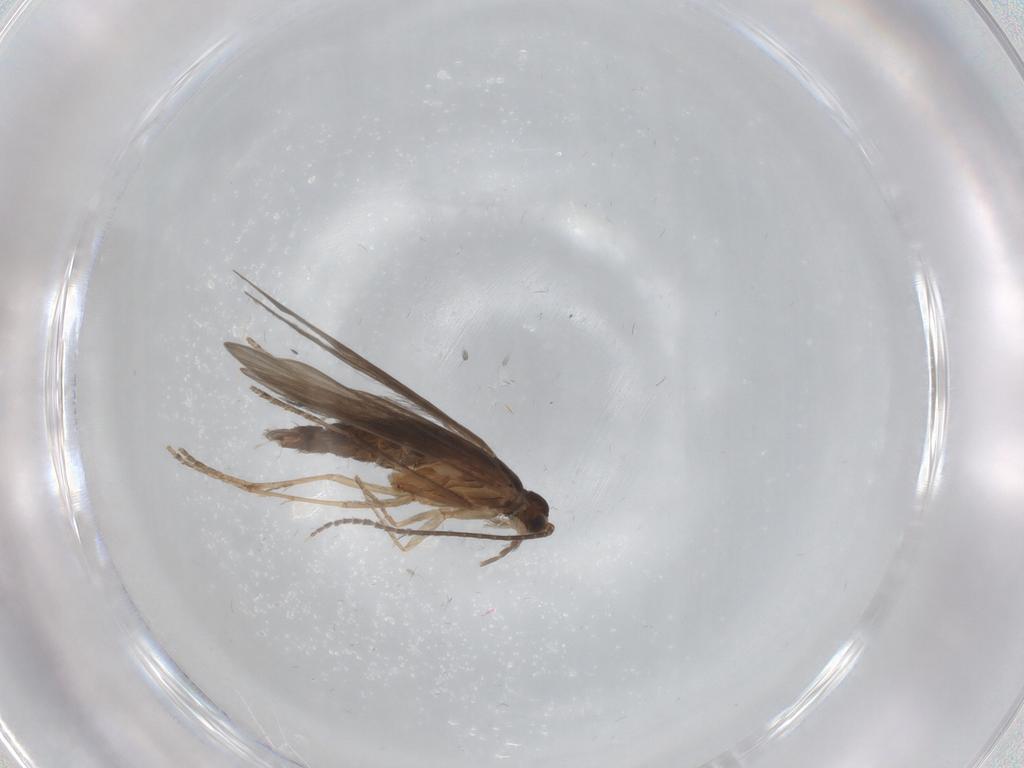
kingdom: Animalia
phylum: Arthropoda
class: Insecta
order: Trichoptera
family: Xiphocentronidae
